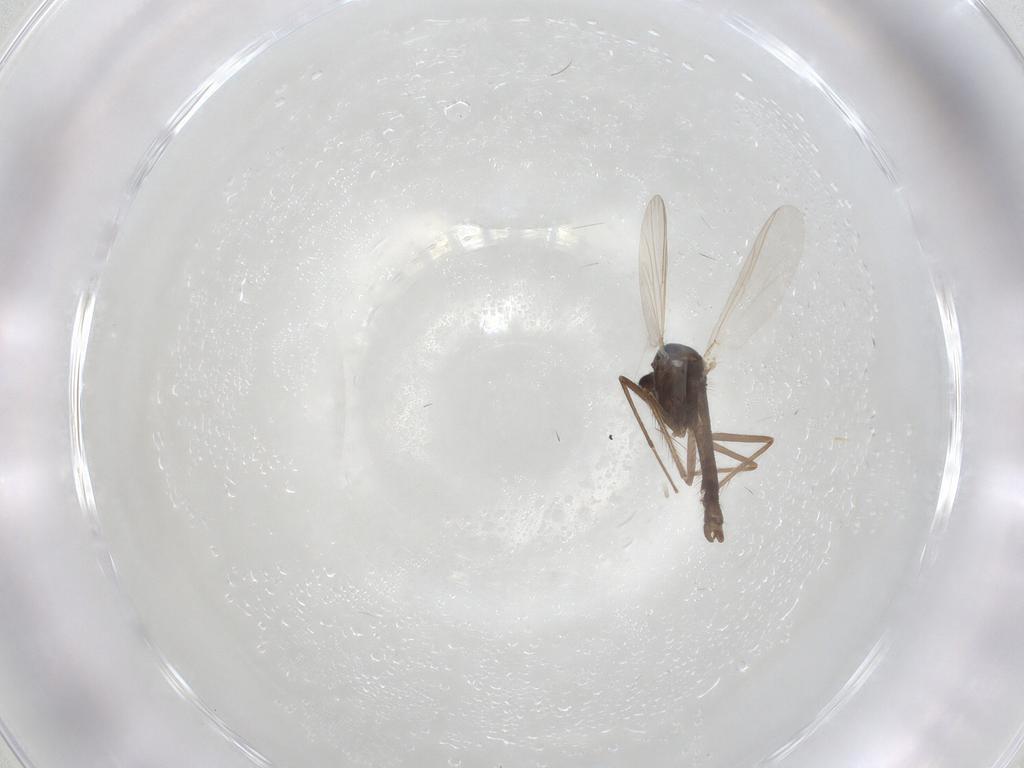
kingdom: Animalia
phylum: Arthropoda
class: Insecta
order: Diptera
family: Chironomidae
